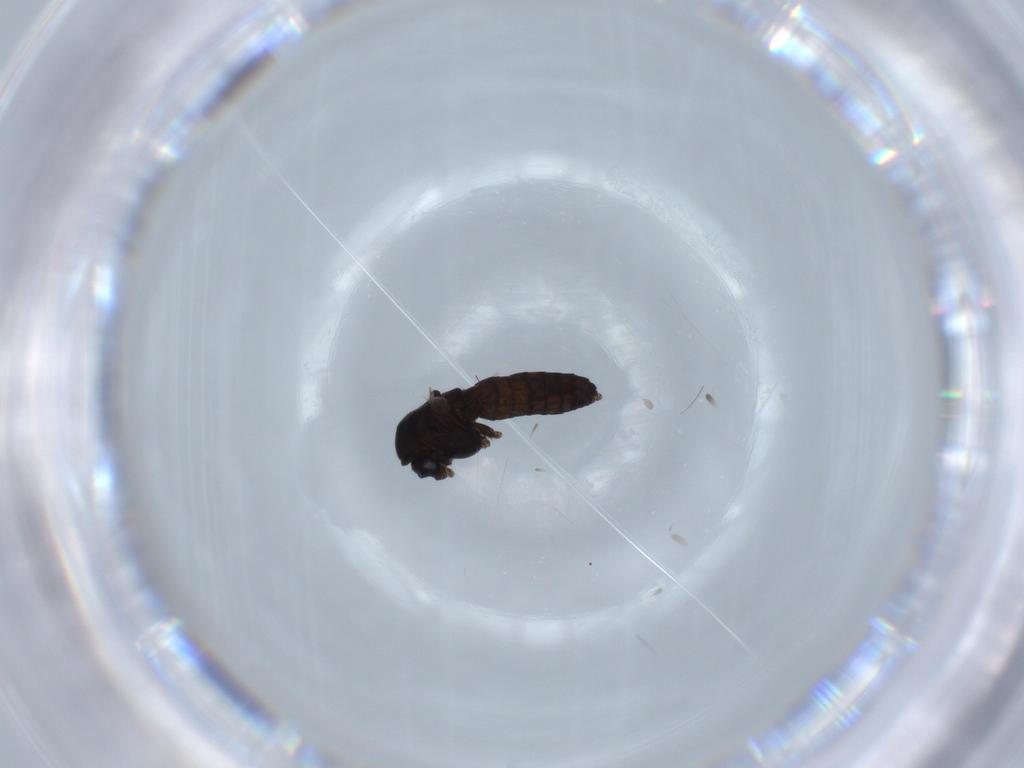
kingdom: Animalia
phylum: Arthropoda
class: Insecta
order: Diptera
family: Chironomidae
